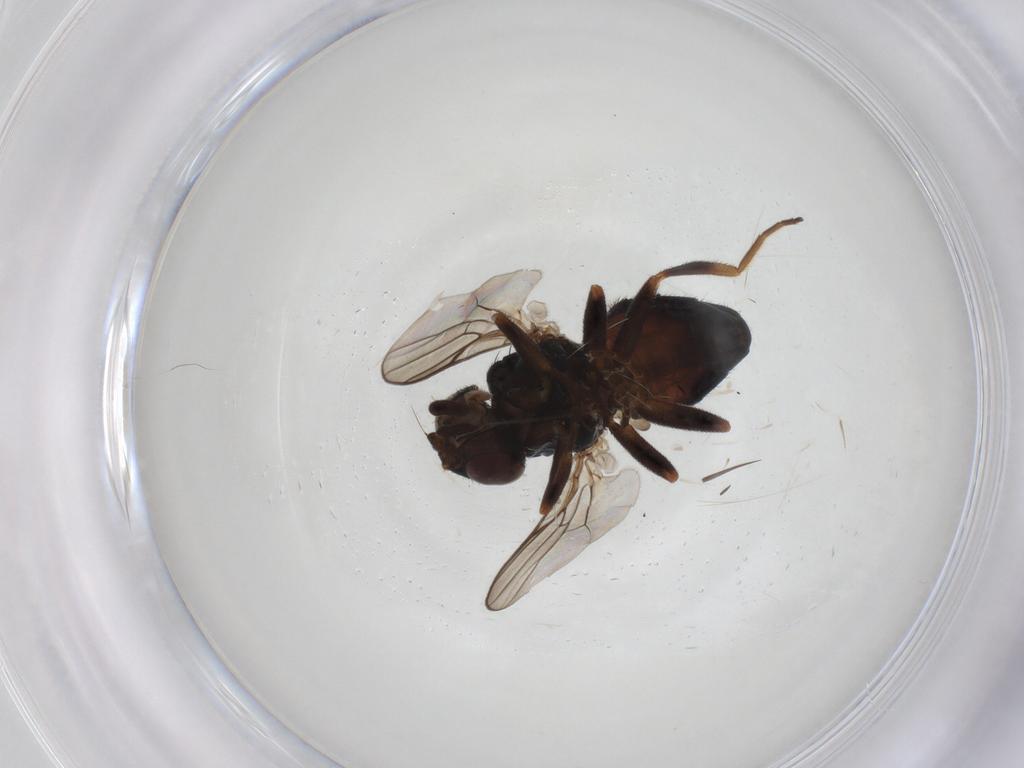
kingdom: Animalia
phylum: Arthropoda
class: Insecta
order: Diptera
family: Chloropidae
